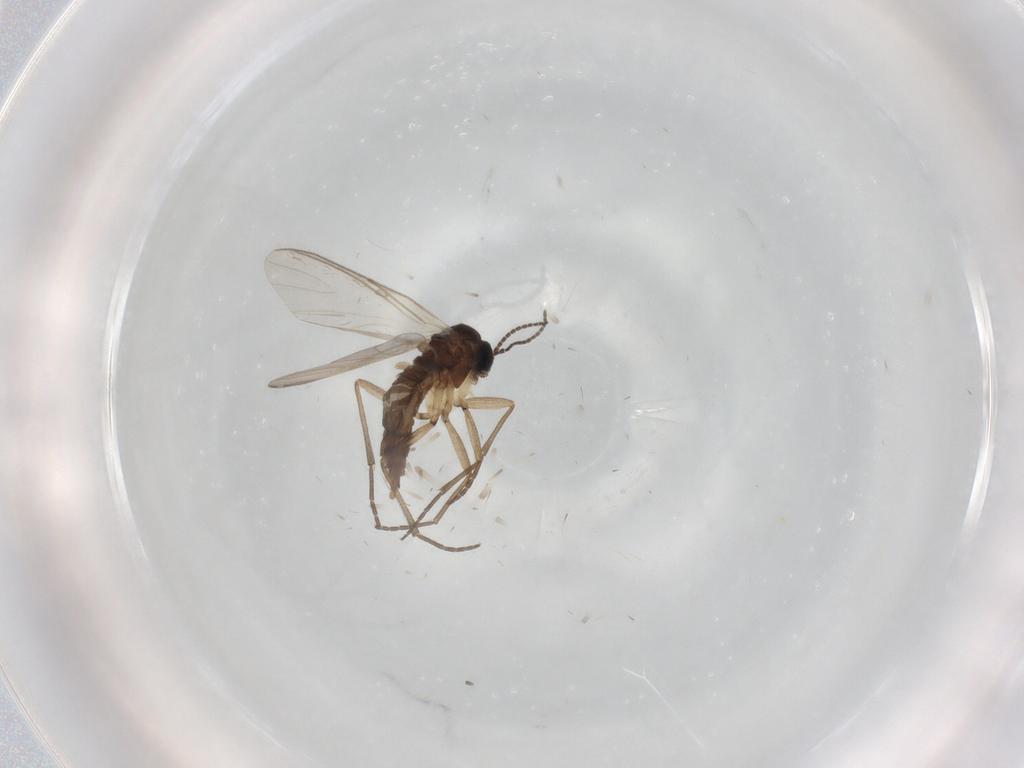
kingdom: Animalia
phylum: Arthropoda
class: Insecta
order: Diptera
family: Sciaridae
